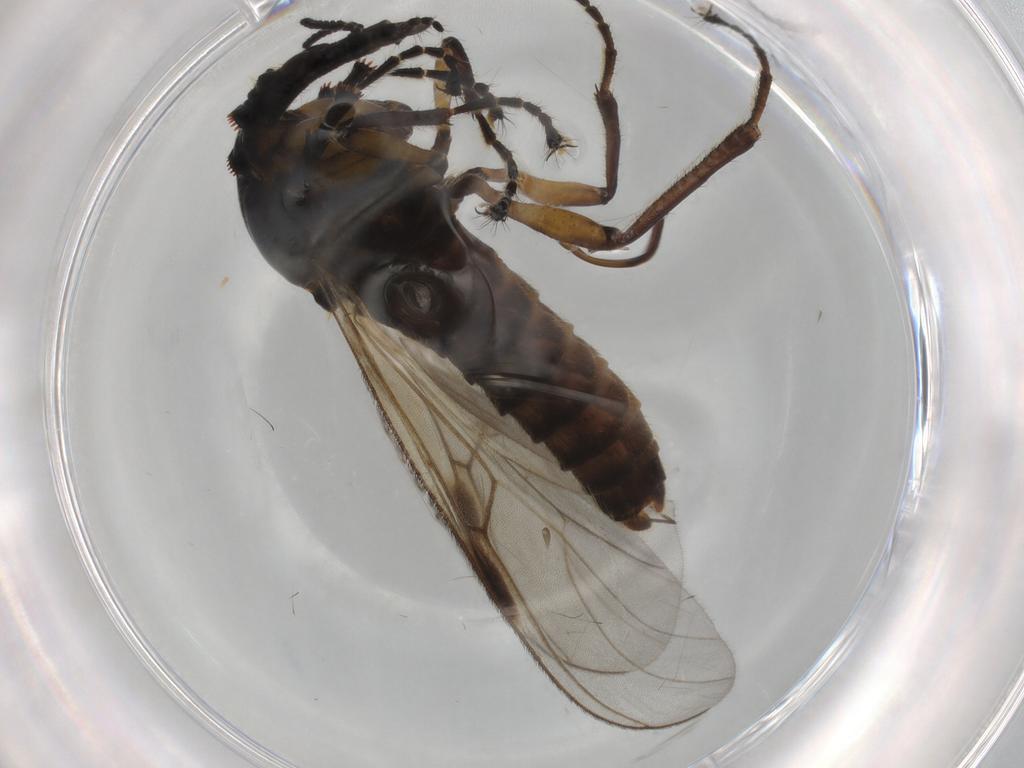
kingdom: Animalia
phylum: Arthropoda
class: Insecta
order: Diptera
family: Bibionidae
